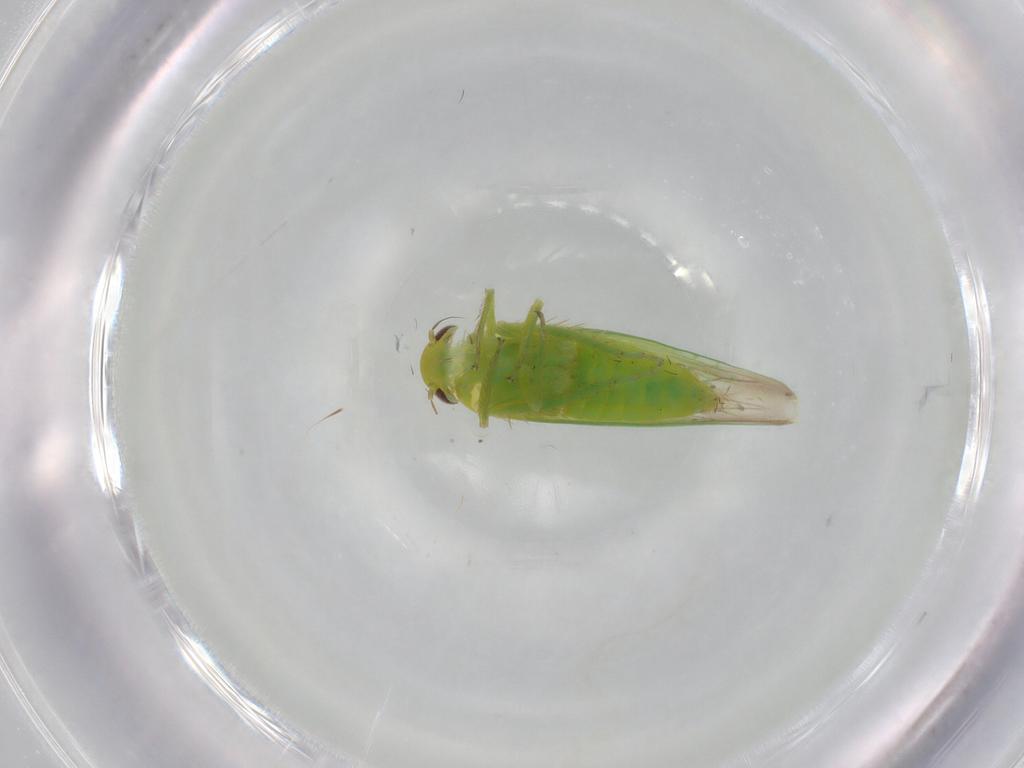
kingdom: Animalia
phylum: Arthropoda
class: Insecta
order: Hemiptera
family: Cicadellidae
